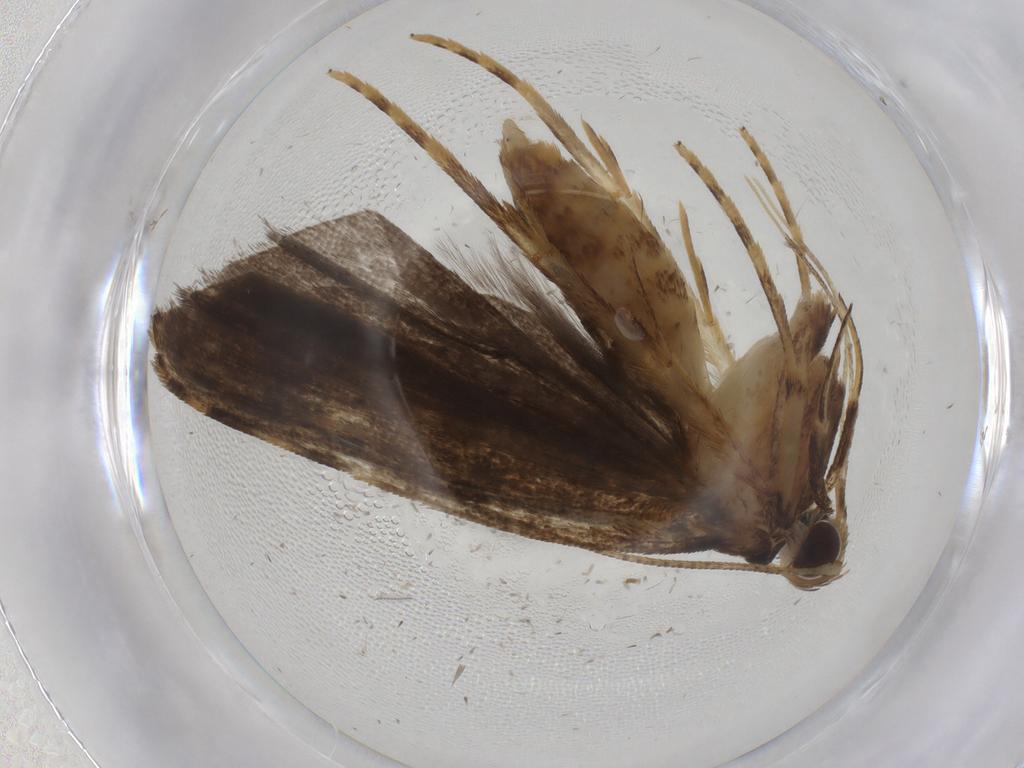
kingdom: Animalia
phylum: Arthropoda
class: Insecta
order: Lepidoptera
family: Autostichidae
